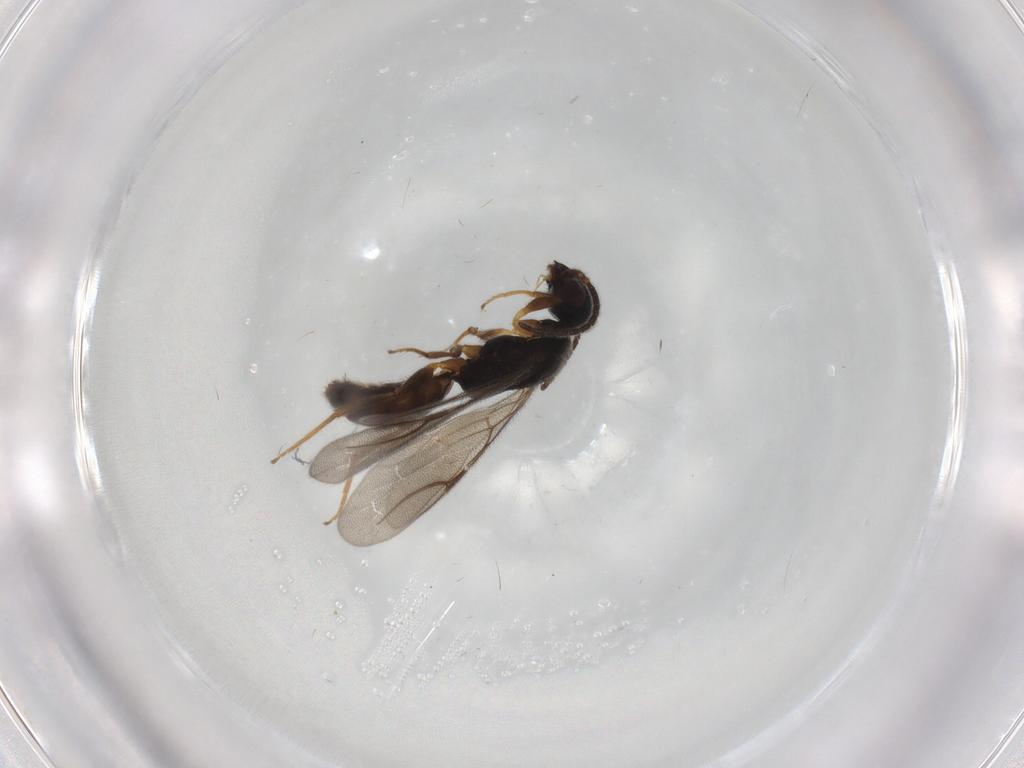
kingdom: Animalia
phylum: Arthropoda
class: Insecta
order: Hymenoptera
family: Bethylidae
